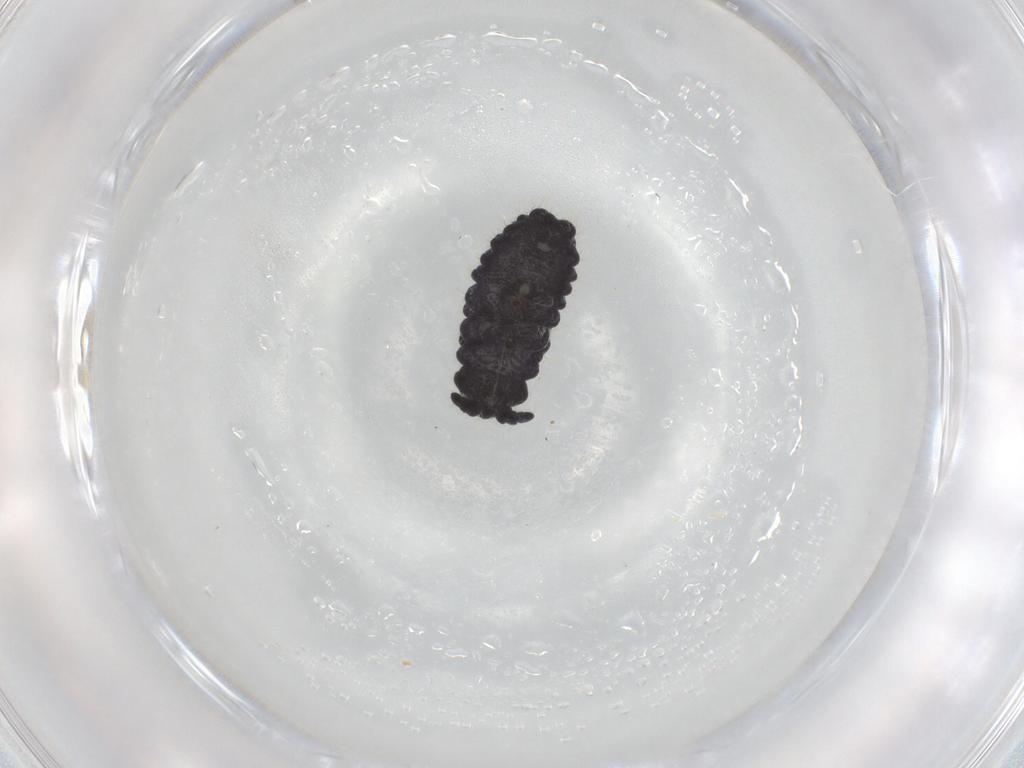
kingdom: Animalia
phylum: Arthropoda
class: Collembola
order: Poduromorpha
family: Neanuridae
